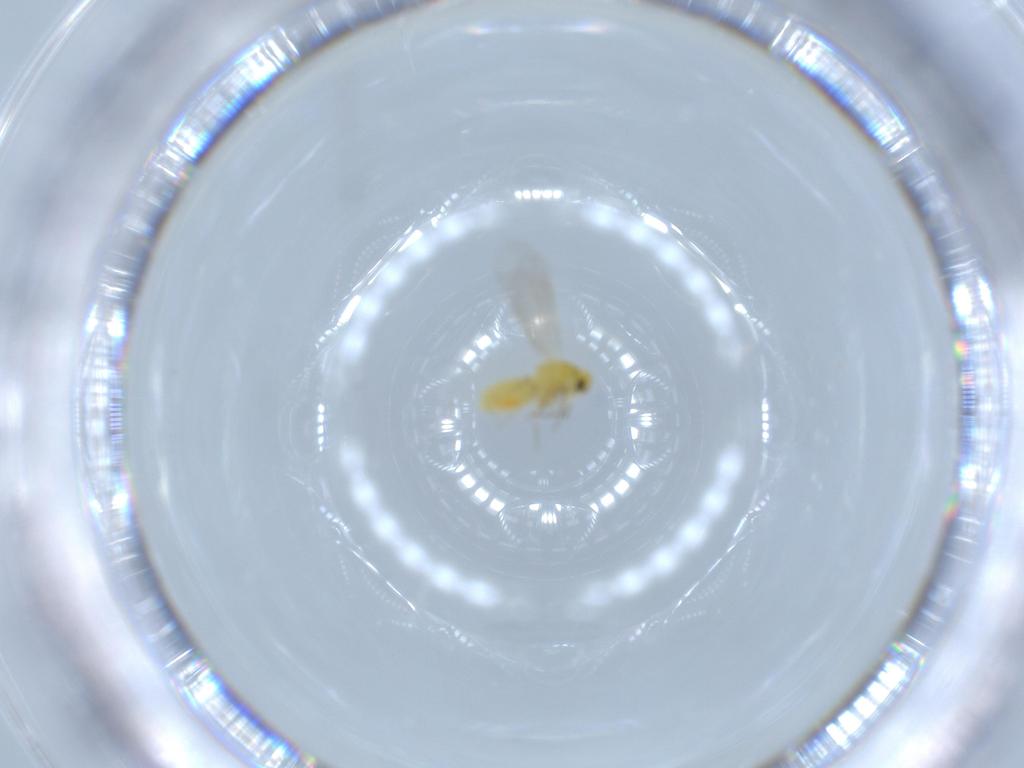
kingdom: Animalia
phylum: Arthropoda
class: Insecta
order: Hemiptera
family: Aleyrodidae
